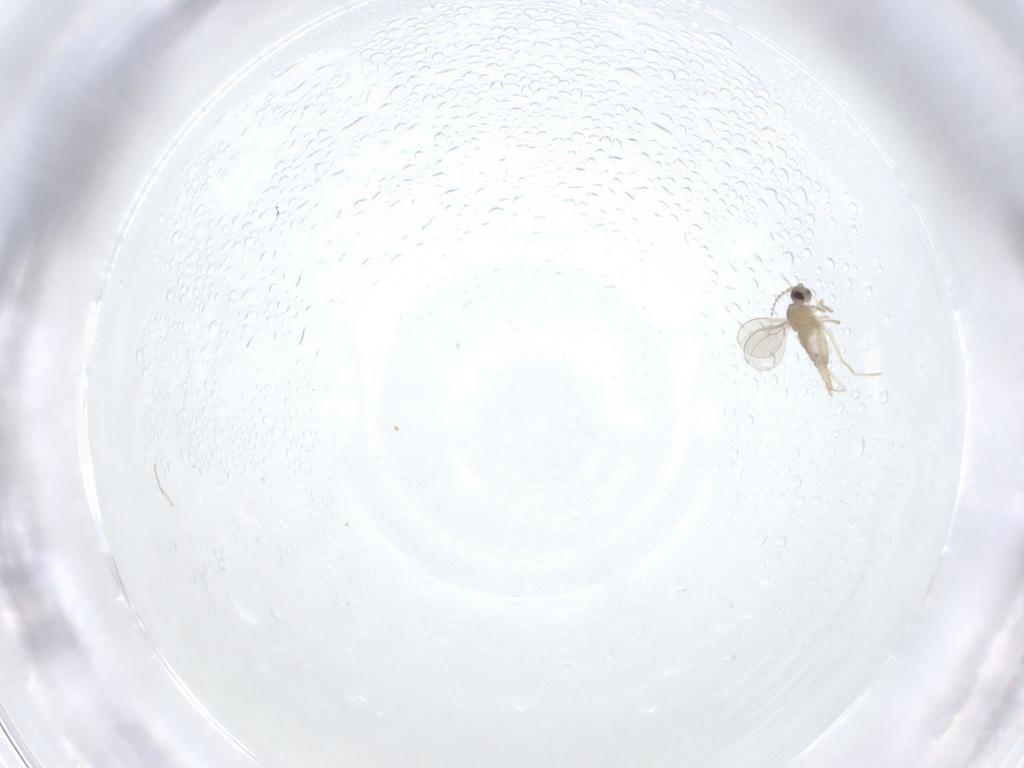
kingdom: Animalia
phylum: Arthropoda
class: Insecta
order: Diptera
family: Cecidomyiidae
